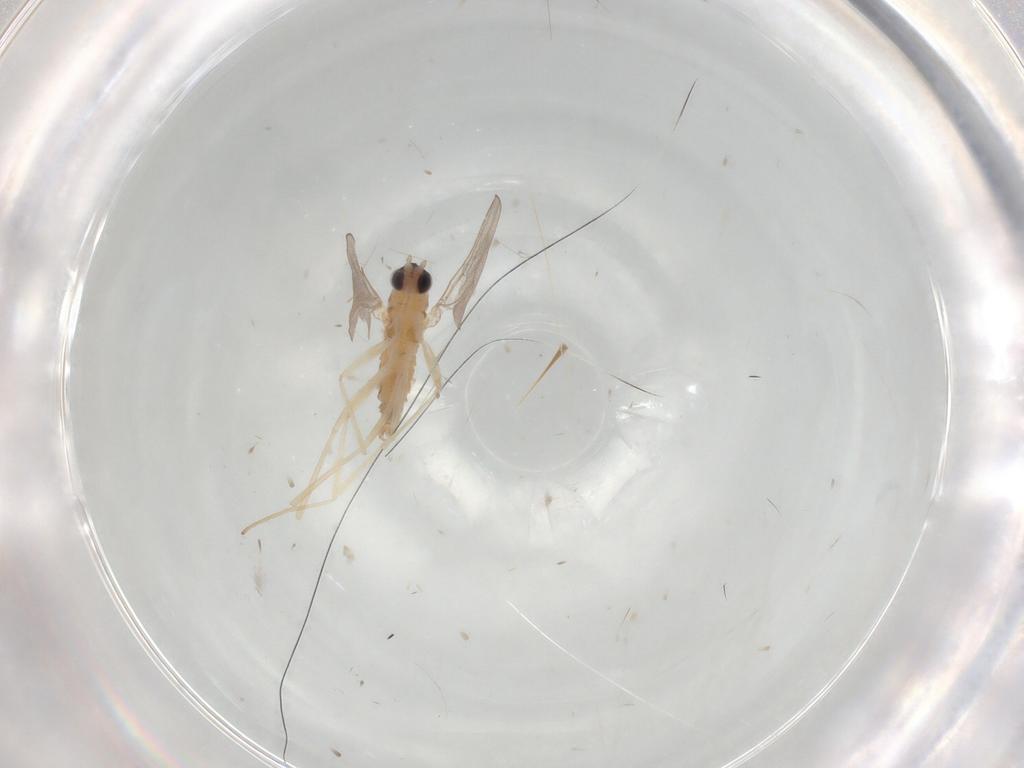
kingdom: Animalia
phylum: Arthropoda
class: Insecta
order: Diptera
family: Cecidomyiidae
